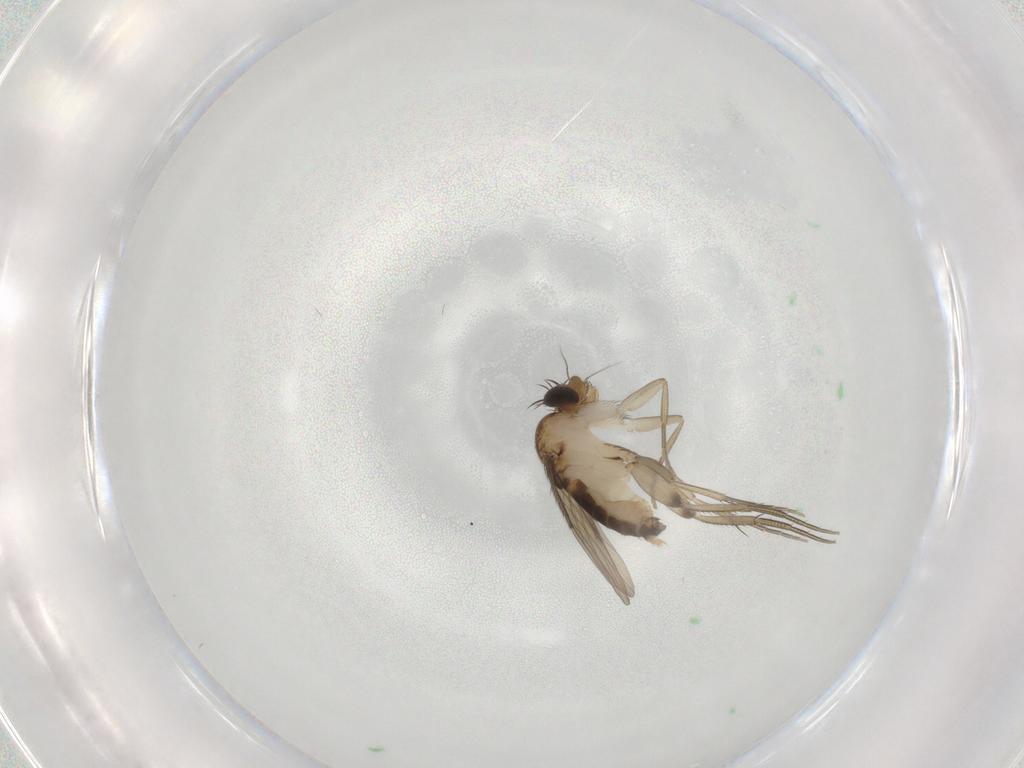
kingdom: Animalia
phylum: Arthropoda
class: Insecta
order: Diptera
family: Phoridae
